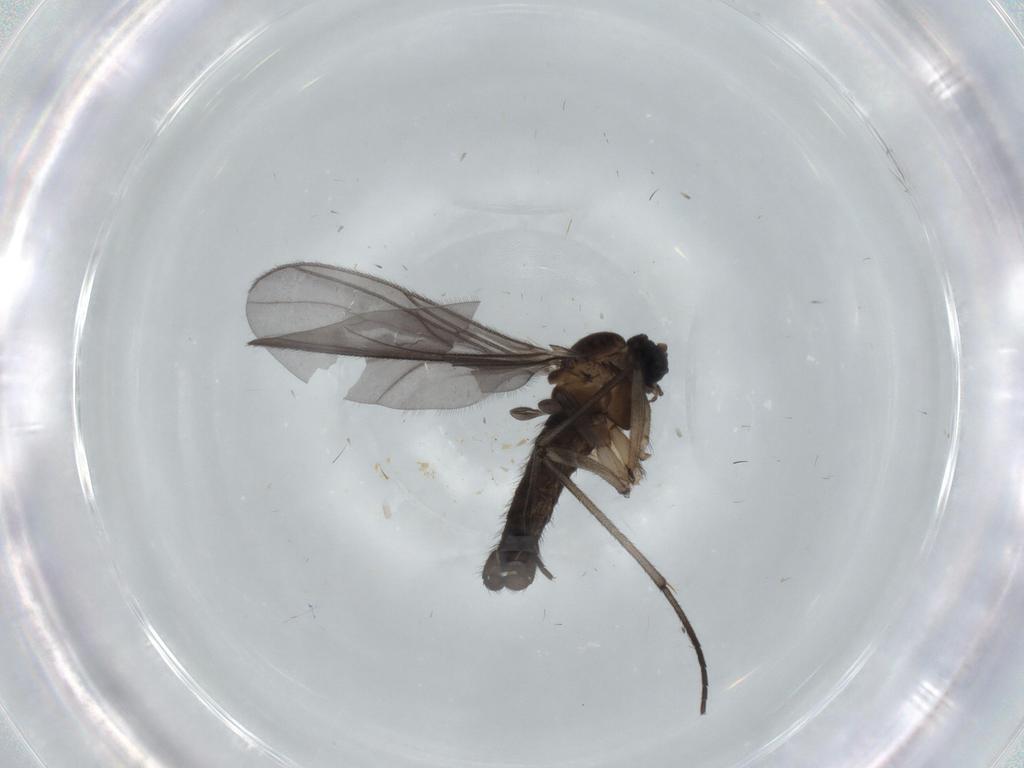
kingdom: Animalia
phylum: Arthropoda
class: Insecta
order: Diptera
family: Sciaridae
